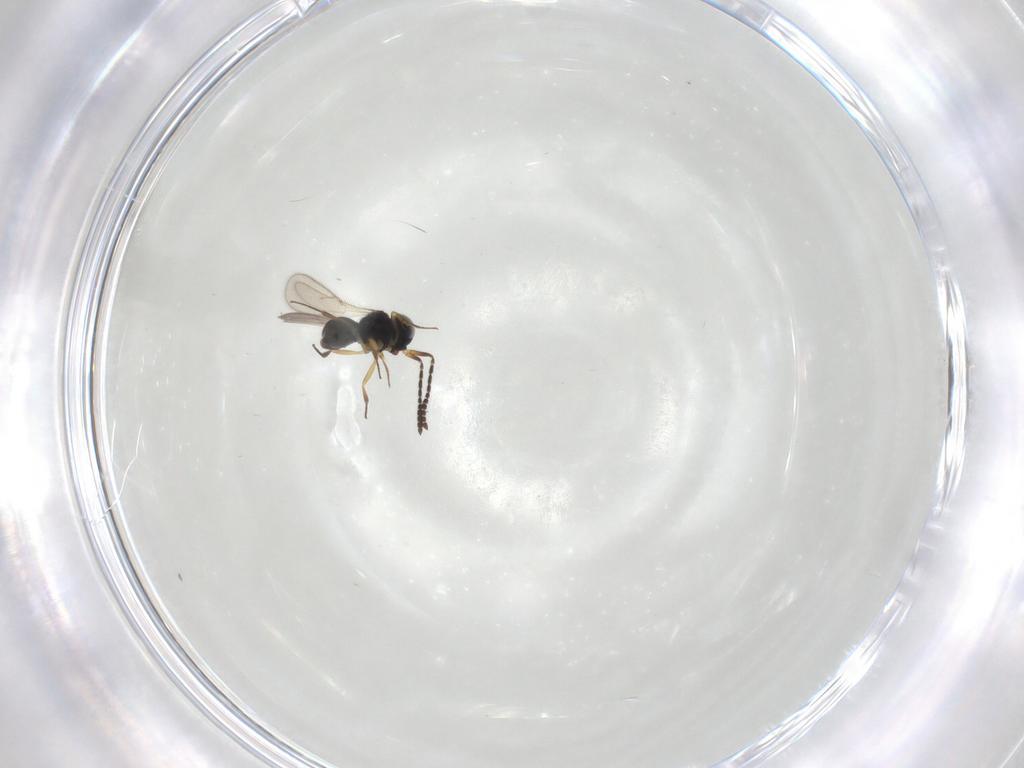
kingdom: Animalia
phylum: Arthropoda
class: Insecta
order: Hymenoptera
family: Scelionidae
